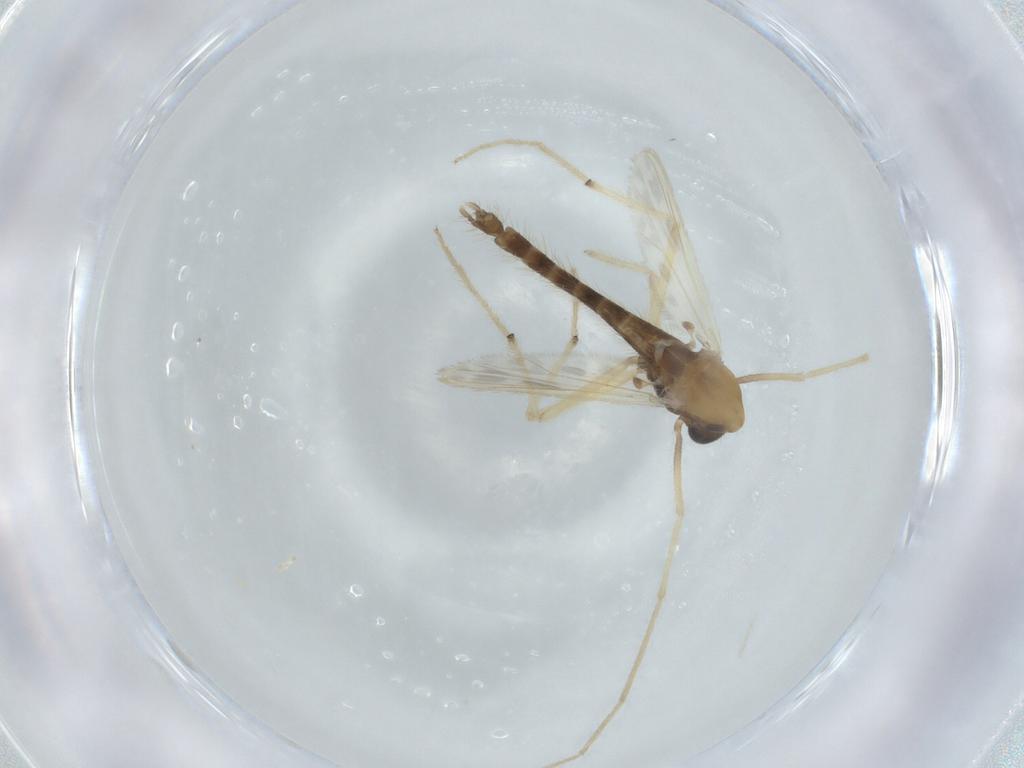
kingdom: Animalia
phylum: Arthropoda
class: Insecta
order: Diptera
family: Chironomidae
